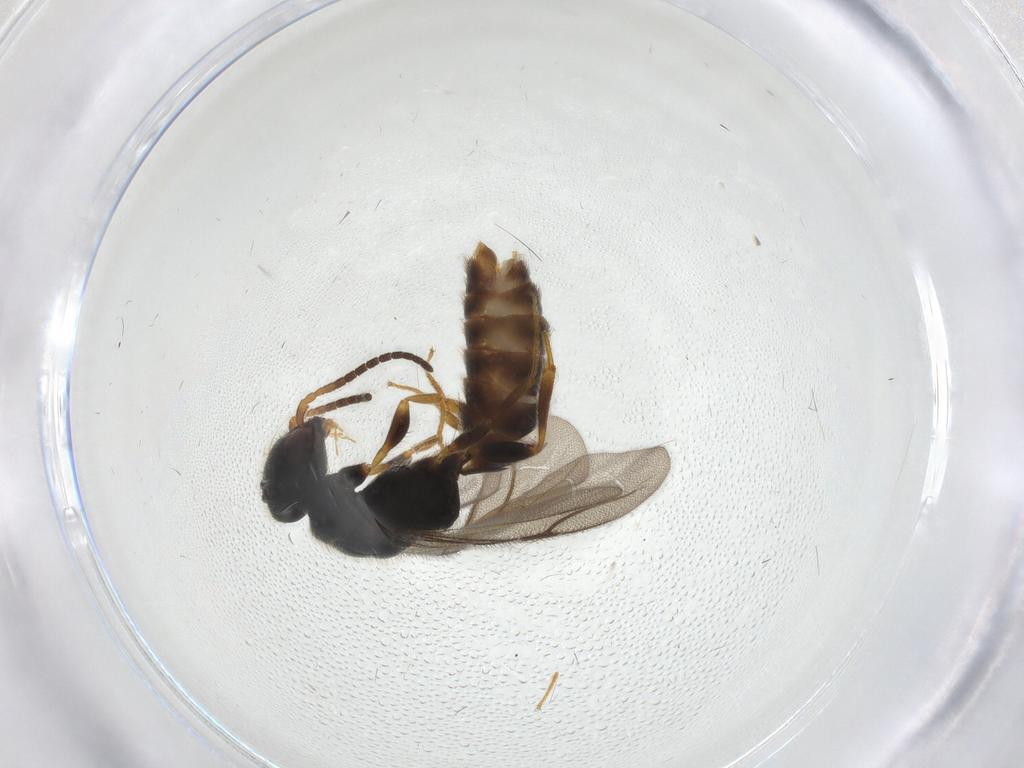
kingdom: Animalia
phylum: Arthropoda
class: Insecta
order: Hymenoptera
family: Bethylidae
